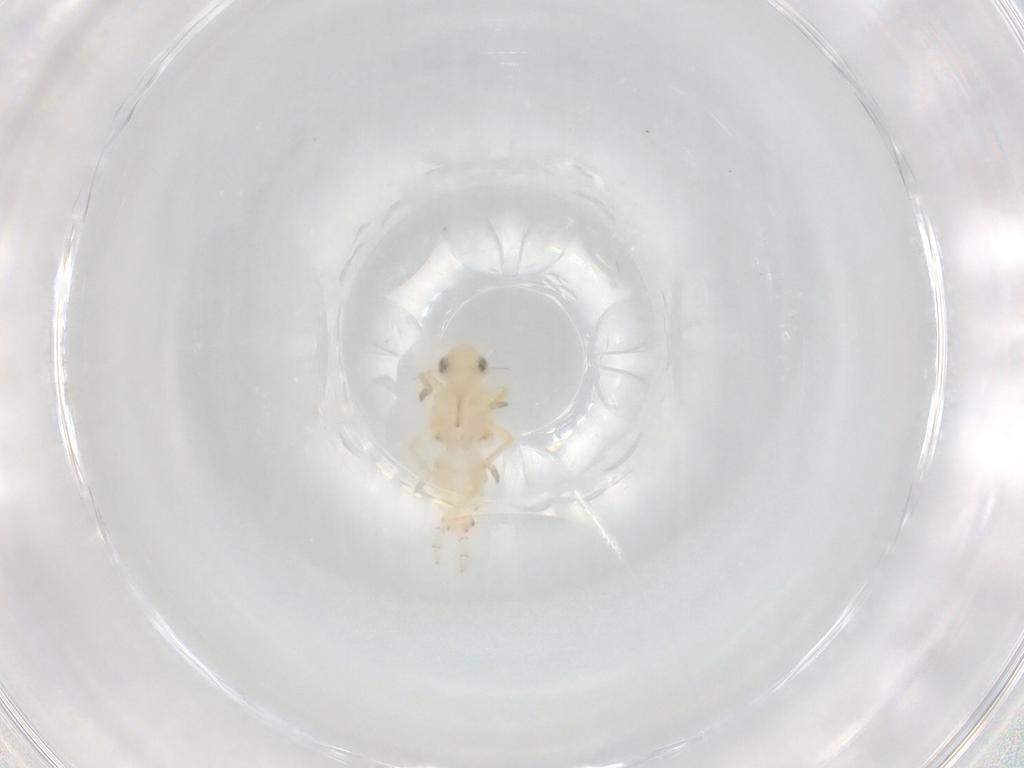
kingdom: Animalia
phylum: Arthropoda
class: Insecta
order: Hemiptera
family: Tropiduchidae
